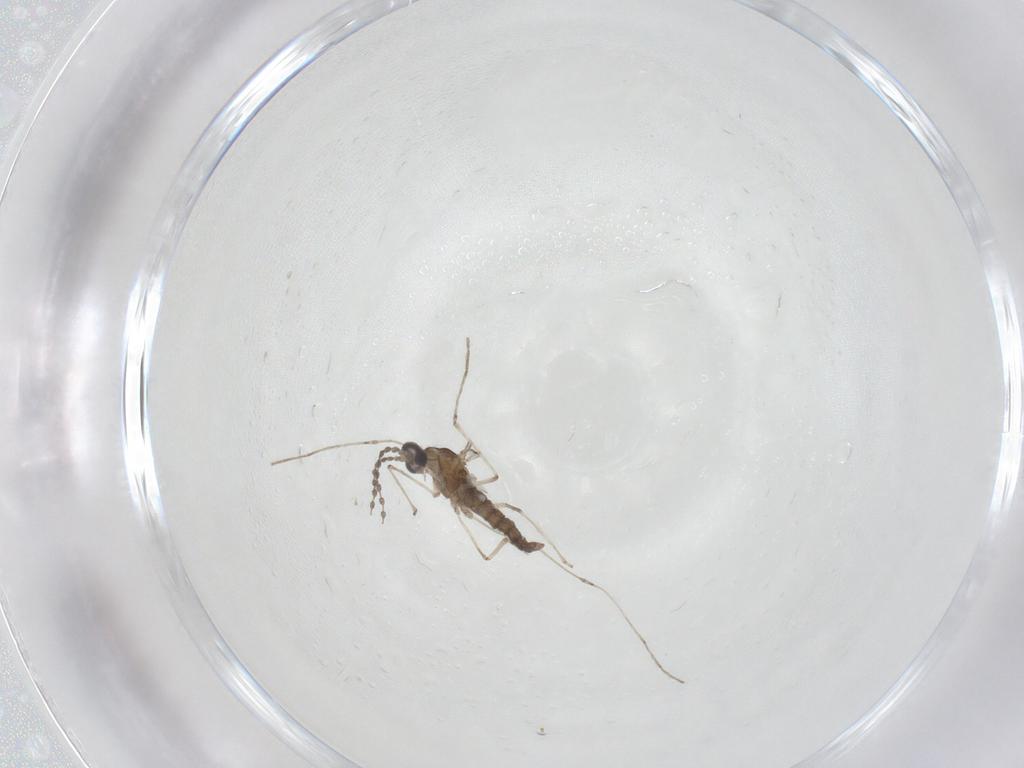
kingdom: Animalia
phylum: Arthropoda
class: Insecta
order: Diptera
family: Cecidomyiidae
